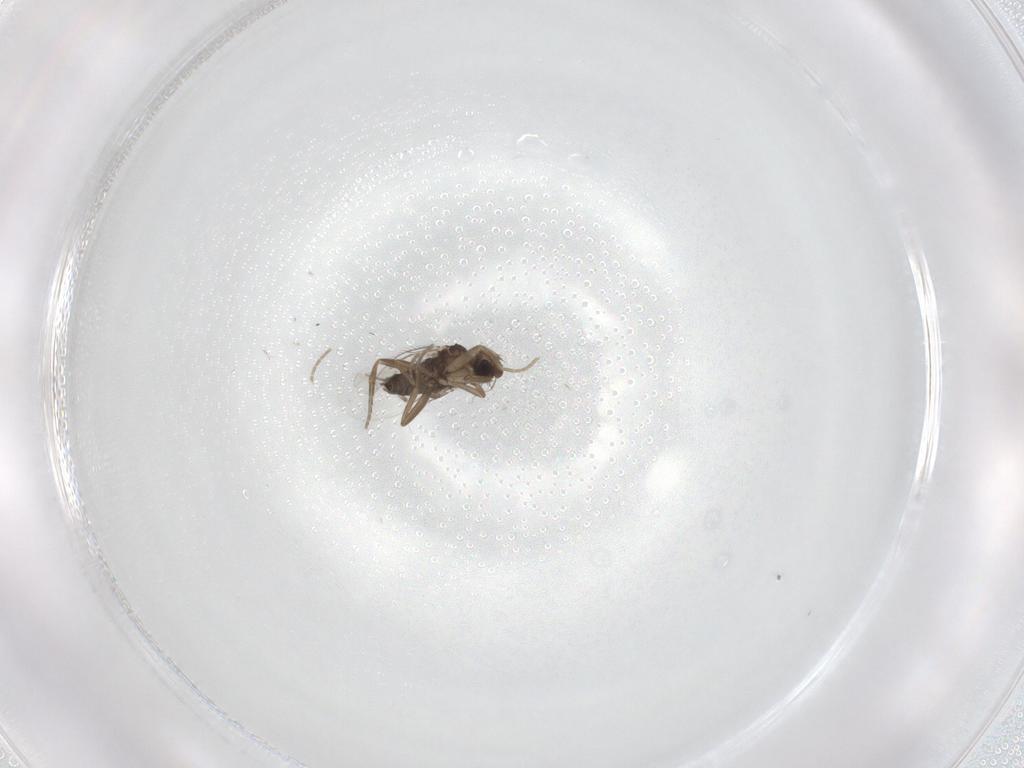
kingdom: Animalia
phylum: Arthropoda
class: Insecta
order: Diptera
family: Phoridae
